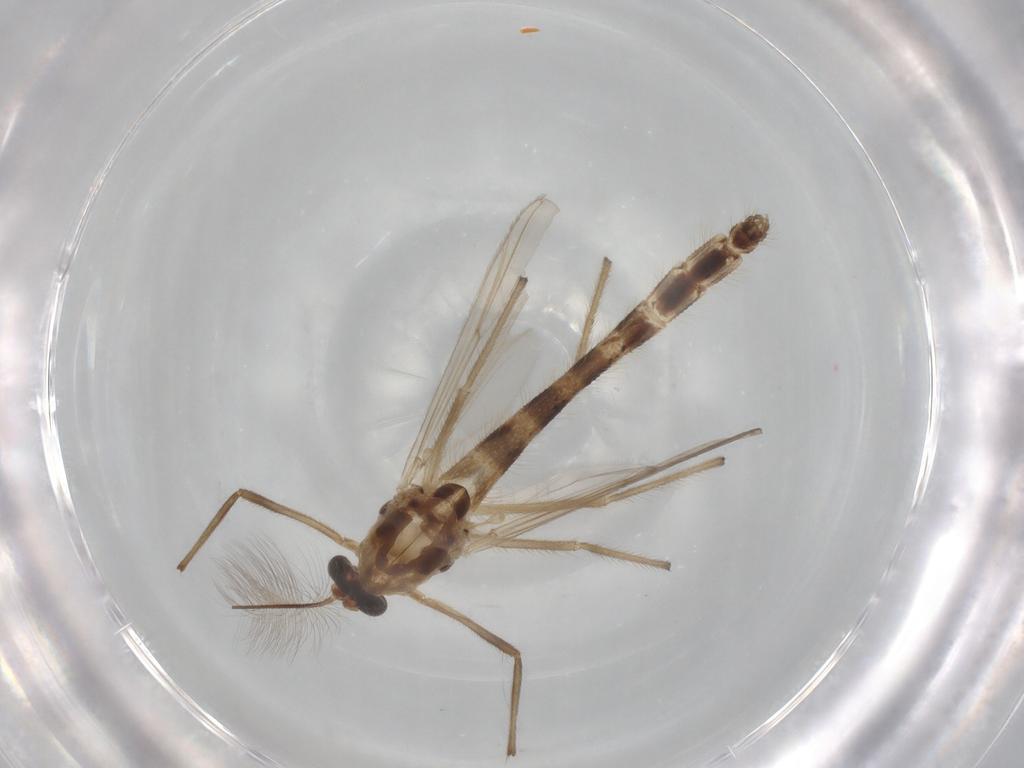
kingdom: Animalia
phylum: Arthropoda
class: Insecta
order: Diptera
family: Chironomidae
